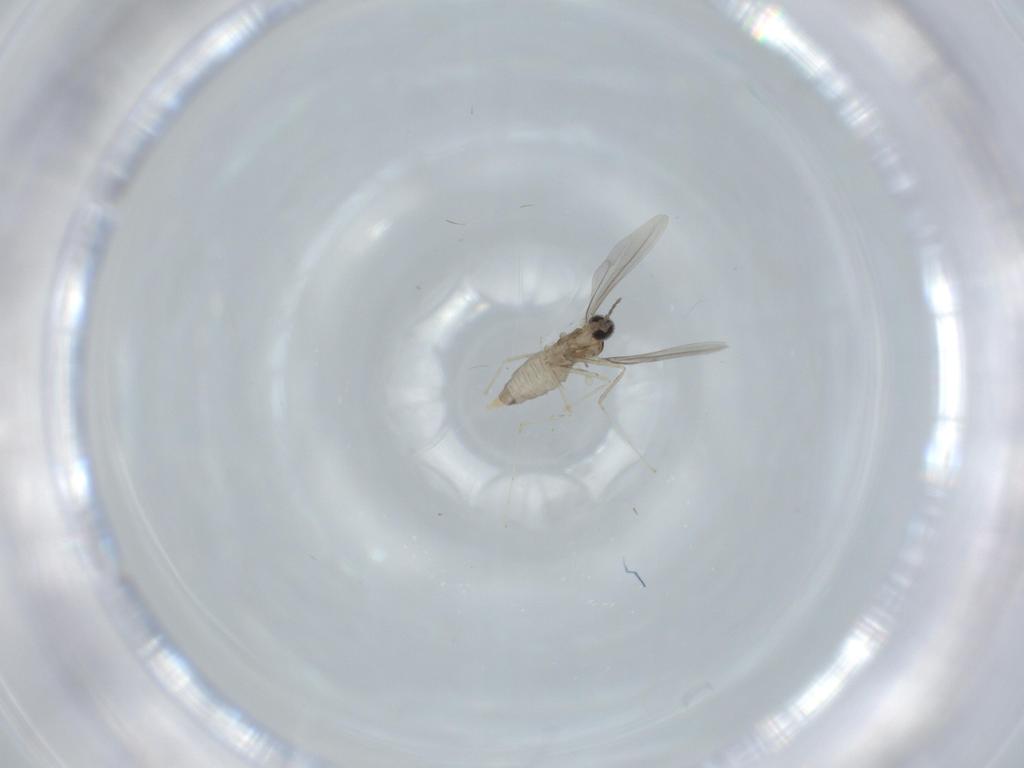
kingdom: Animalia
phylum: Arthropoda
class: Insecta
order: Diptera
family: Cecidomyiidae
